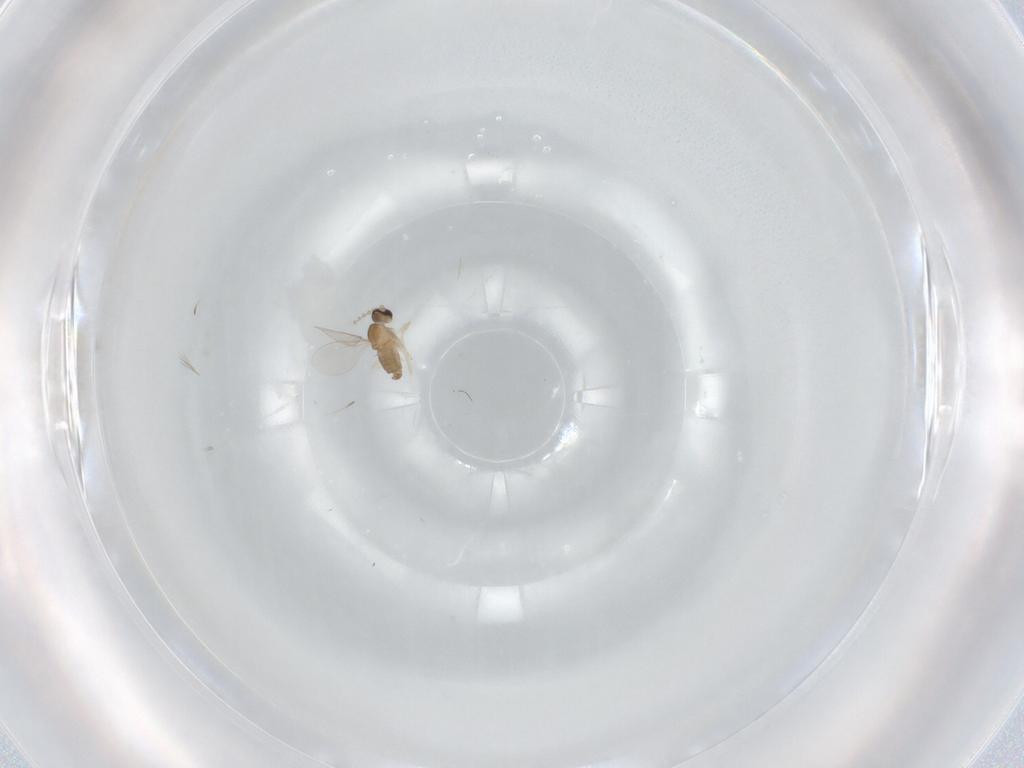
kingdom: Animalia
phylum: Arthropoda
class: Insecta
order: Diptera
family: Cecidomyiidae
